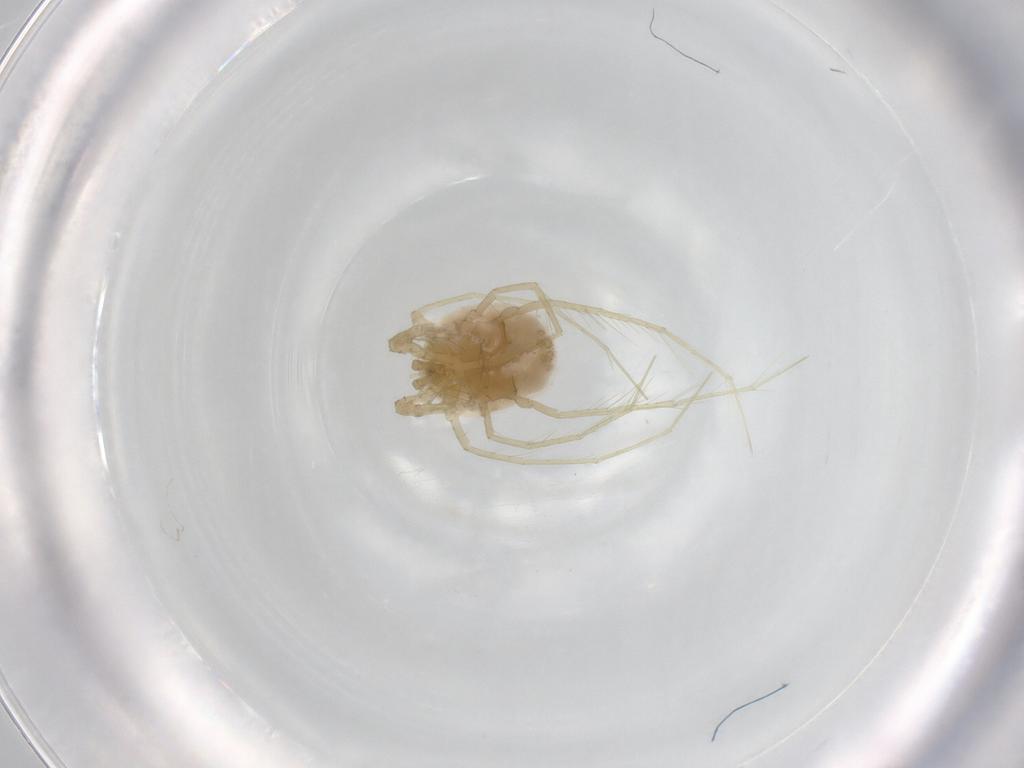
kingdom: Animalia
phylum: Arthropoda
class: Arachnida
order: Trombidiformes
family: Unionicolidae
